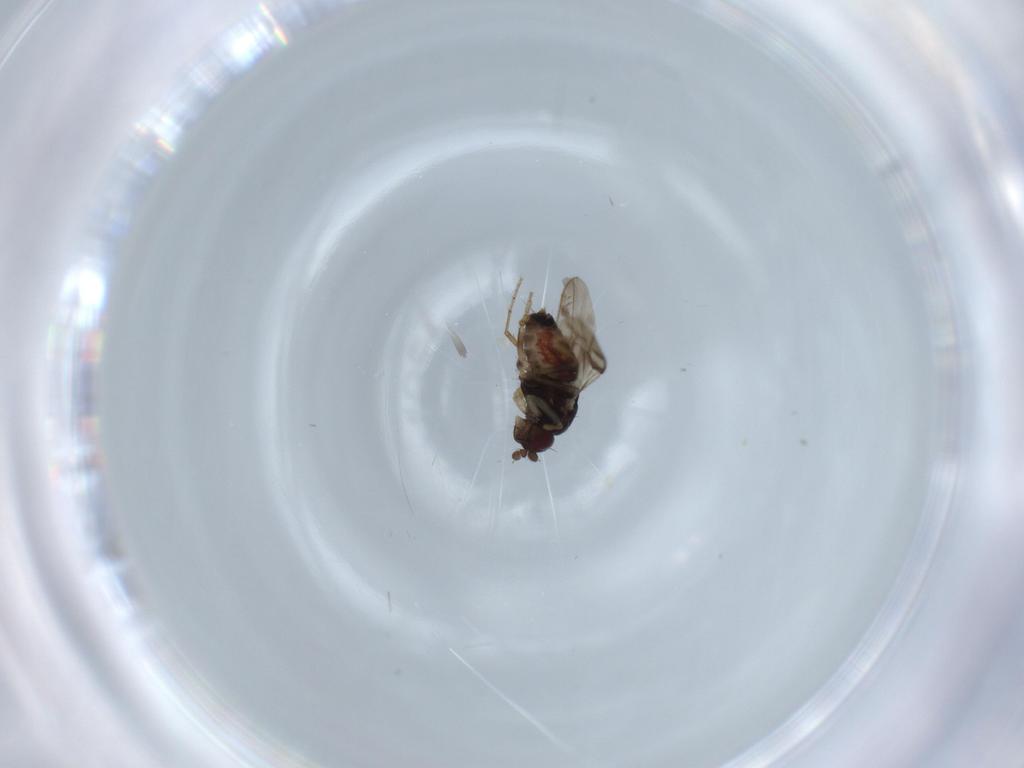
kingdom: Animalia
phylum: Arthropoda
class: Insecta
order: Diptera
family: Sphaeroceridae
